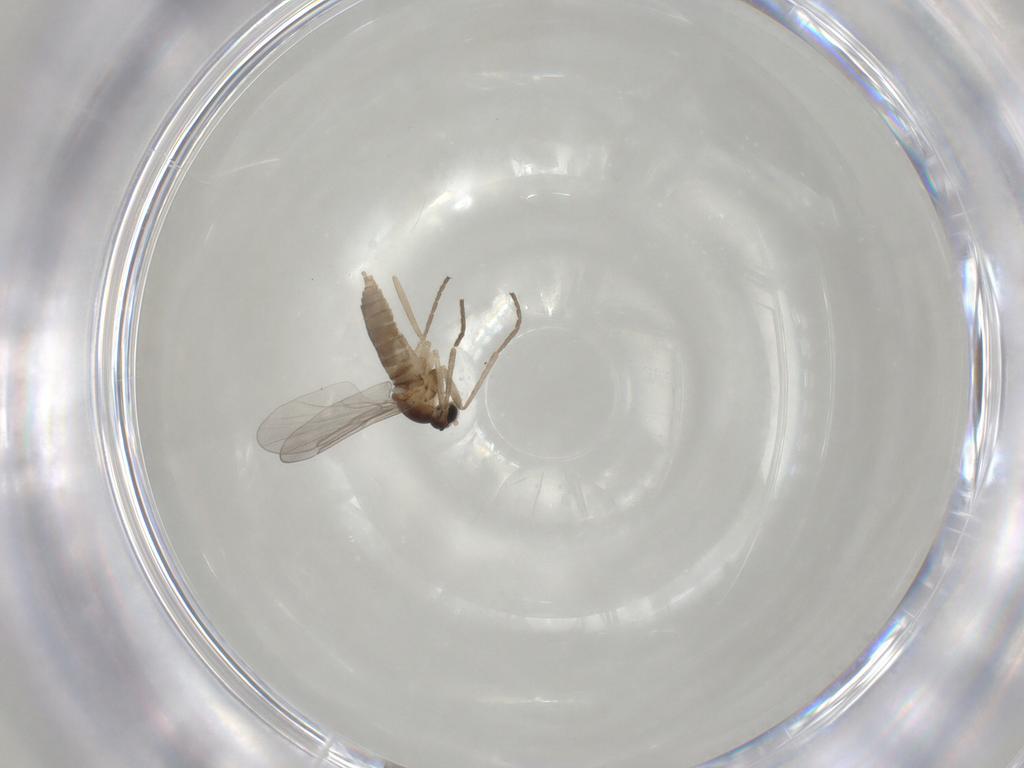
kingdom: Animalia
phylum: Arthropoda
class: Insecta
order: Diptera
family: Cecidomyiidae
